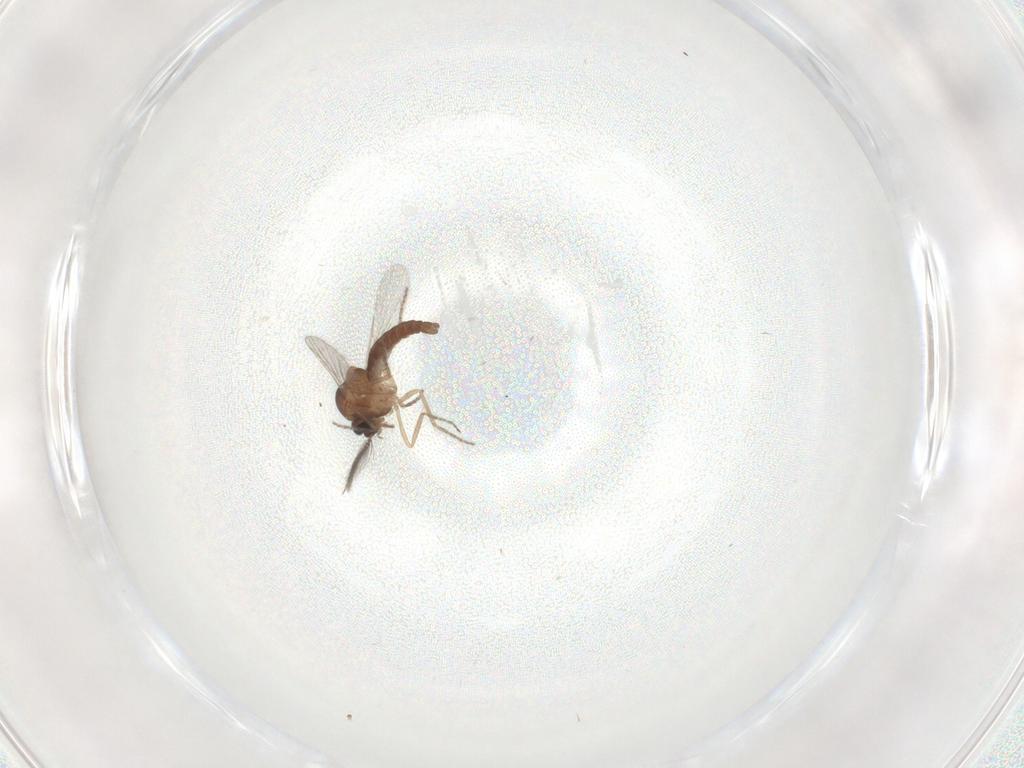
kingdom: Animalia
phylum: Arthropoda
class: Insecta
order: Diptera
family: Ceratopogonidae
